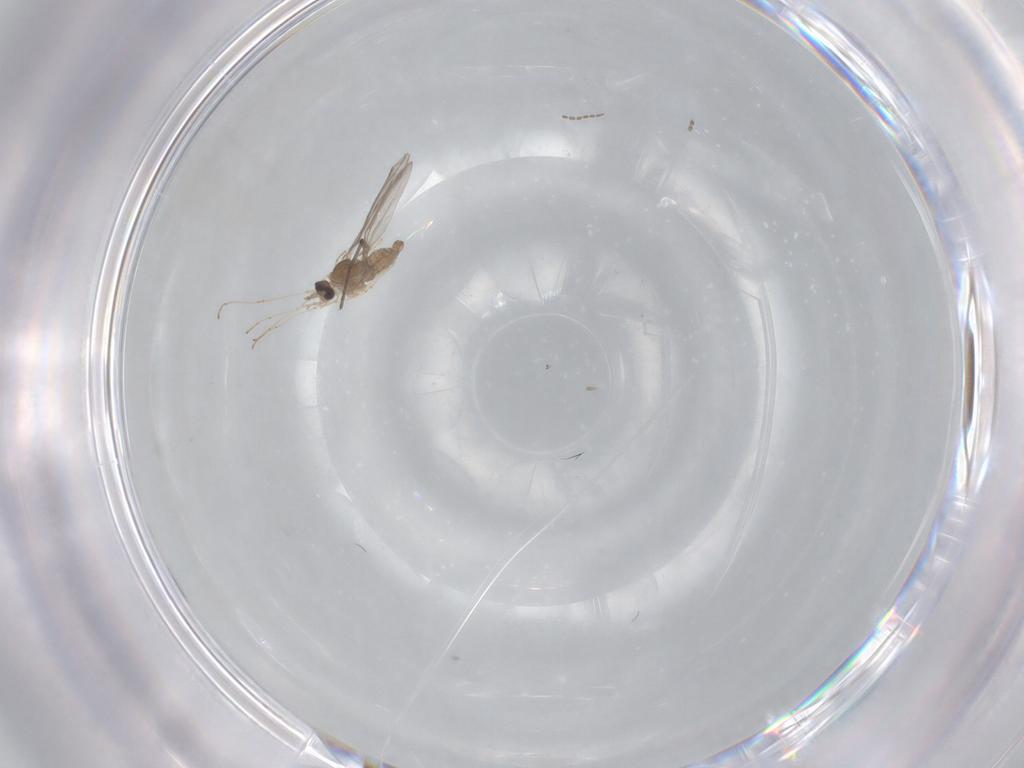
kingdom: Animalia
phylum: Arthropoda
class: Insecta
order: Diptera
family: Cecidomyiidae
